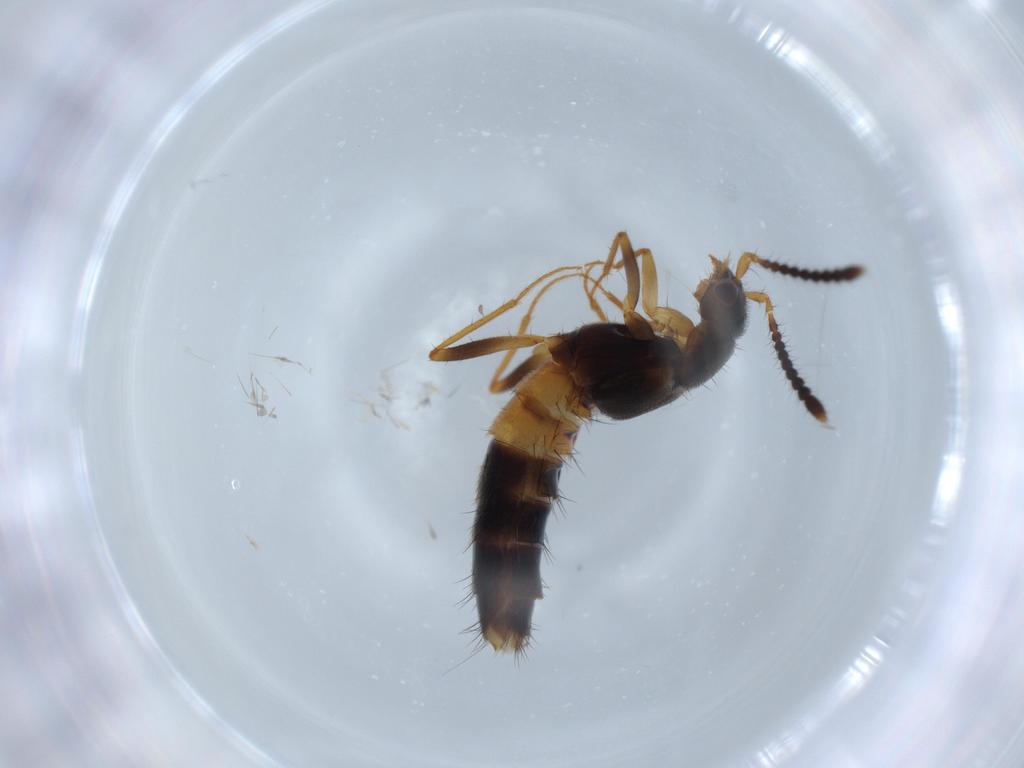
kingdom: Animalia
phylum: Arthropoda
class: Insecta
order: Coleoptera
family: Staphylinidae
